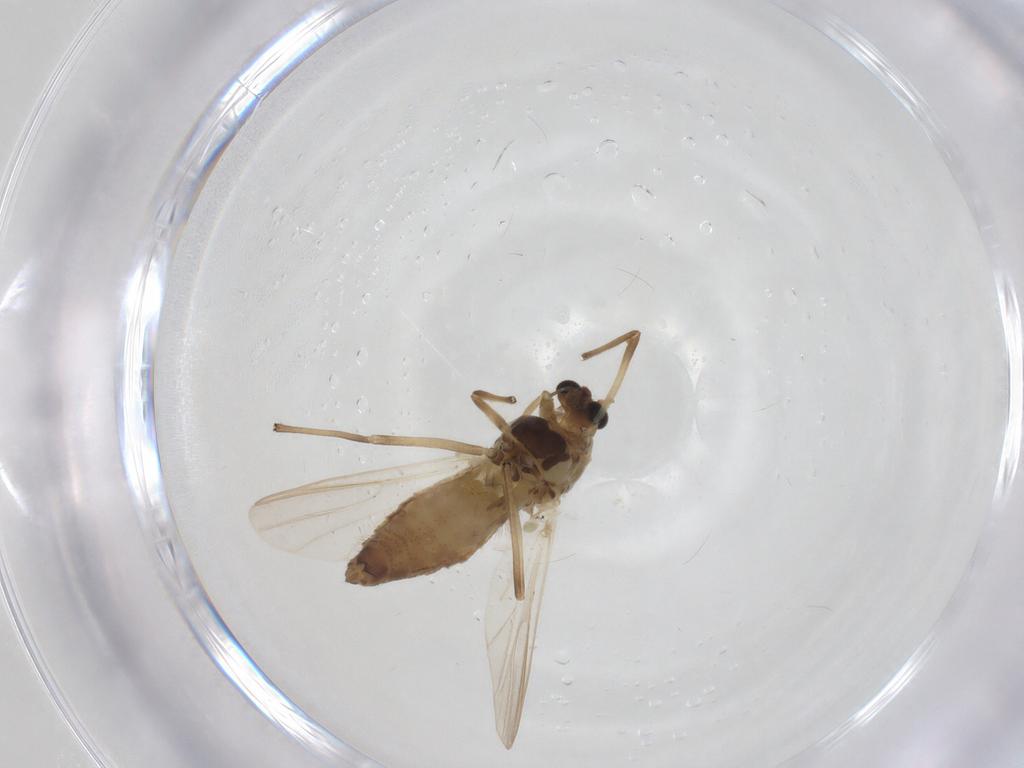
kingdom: Animalia
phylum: Arthropoda
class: Insecta
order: Diptera
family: Chironomidae
